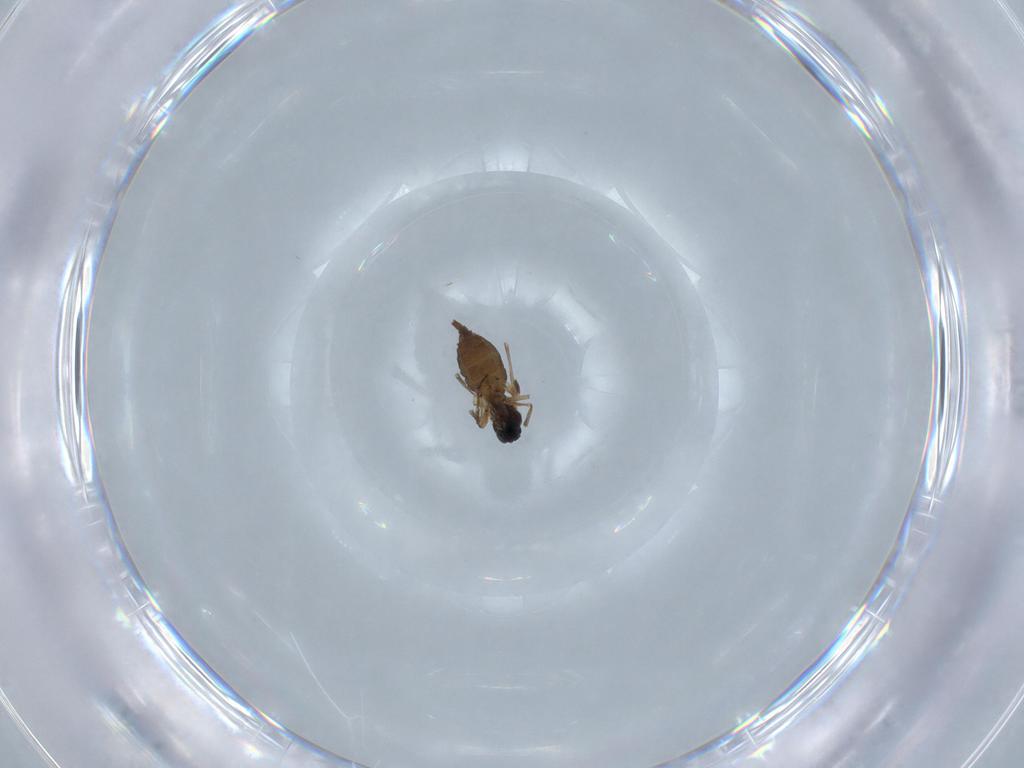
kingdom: Animalia
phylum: Arthropoda
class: Insecta
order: Diptera
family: Sciaridae
